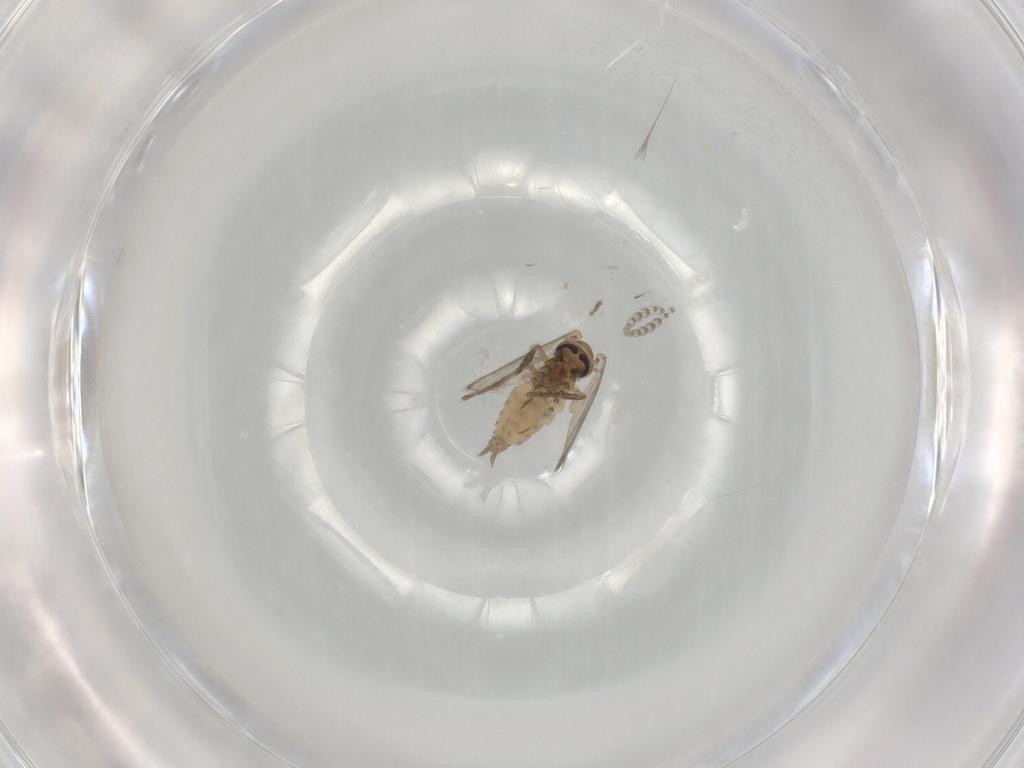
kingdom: Animalia
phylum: Arthropoda
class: Insecta
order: Diptera
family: Psychodidae
